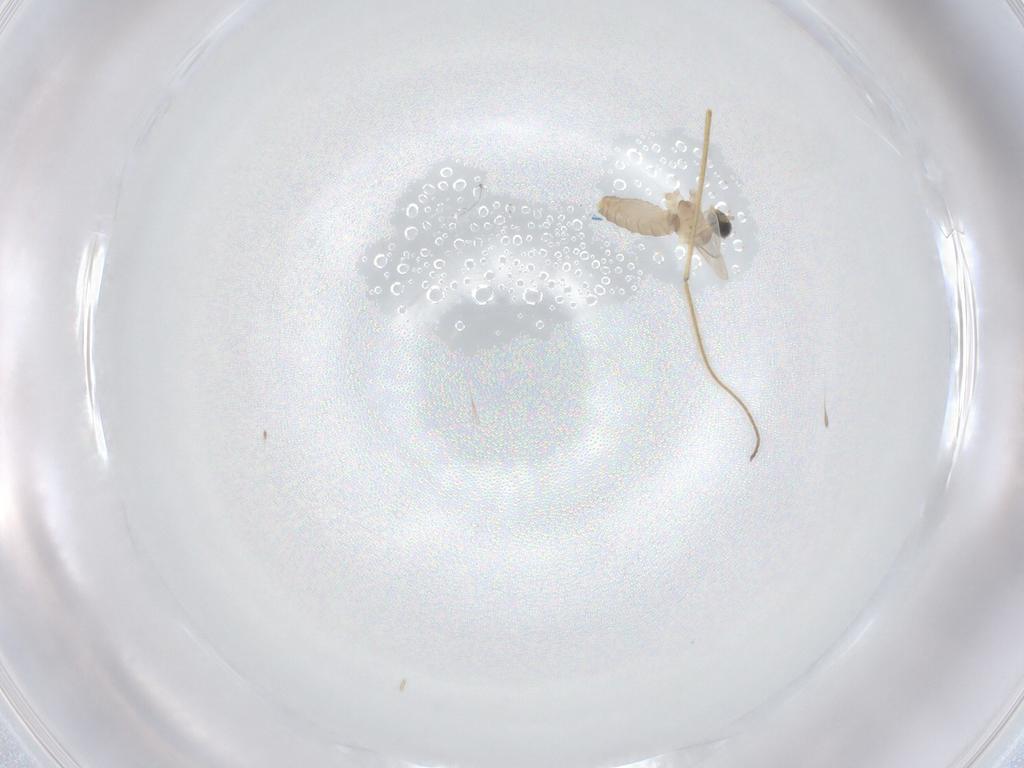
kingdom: Animalia
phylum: Arthropoda
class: Insecta
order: Diptera
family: Cecidomyiidae
